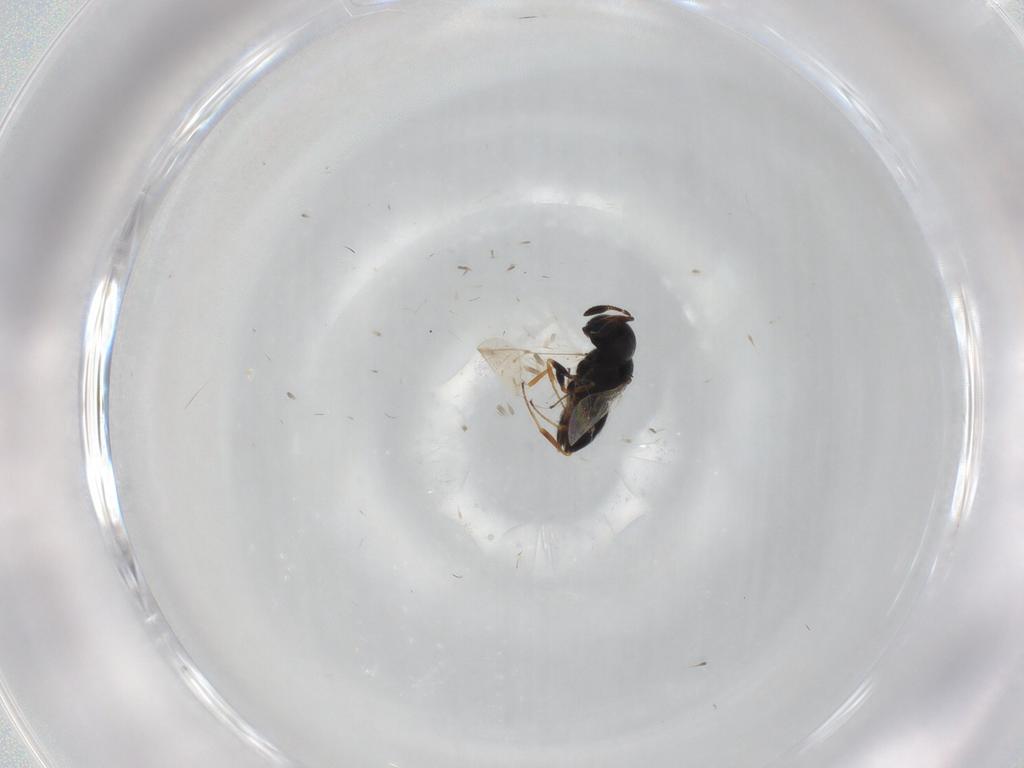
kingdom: Animalia
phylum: Arthropoda
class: Insecta
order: Coleoptera
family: Curculionidae
